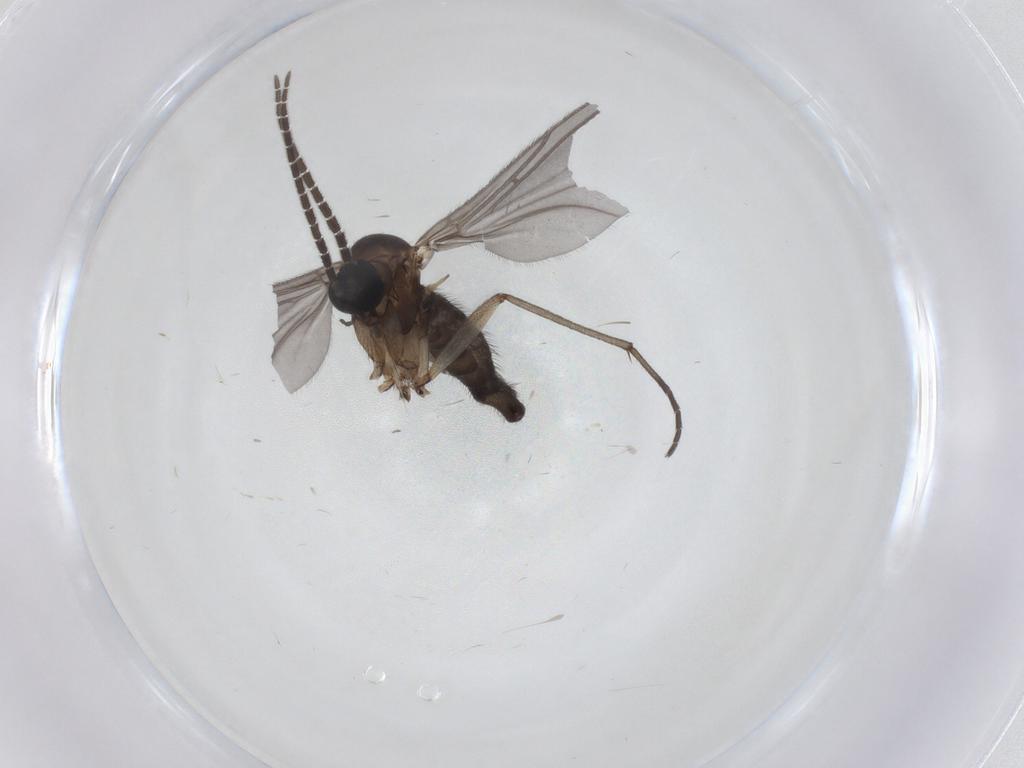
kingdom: Animalia
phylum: Arthropoda
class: Insecta
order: Diptera
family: Sciaridae
